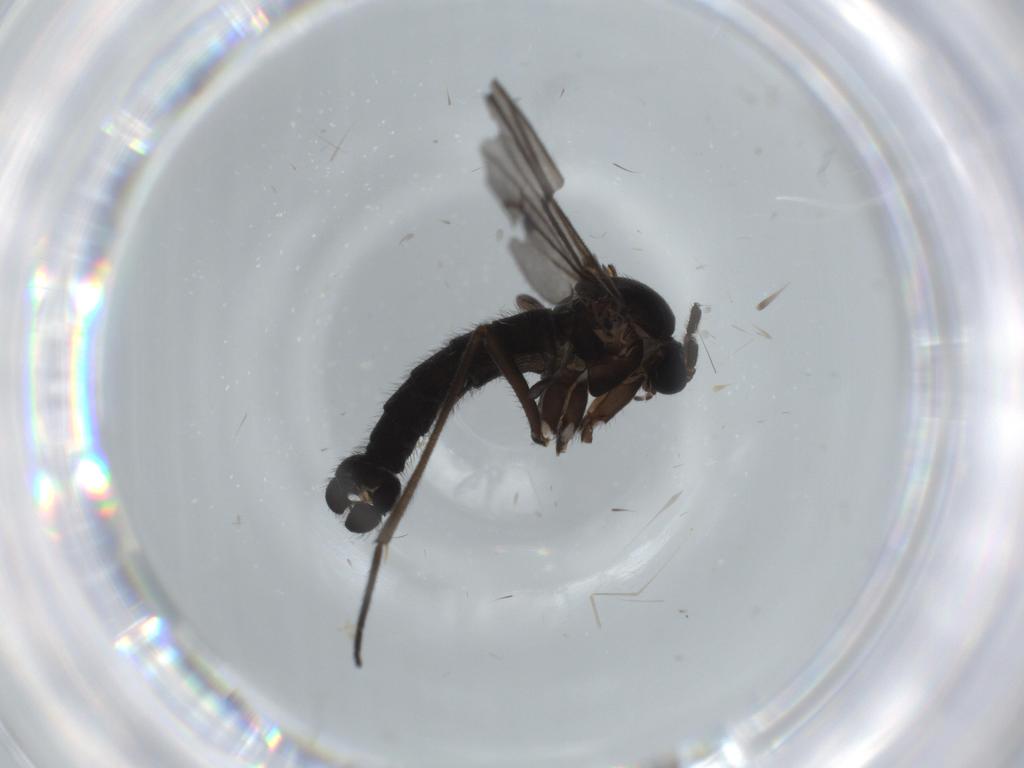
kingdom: Animalia
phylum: Arthropoda
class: Insecta
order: Diptera
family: Sciaridae
